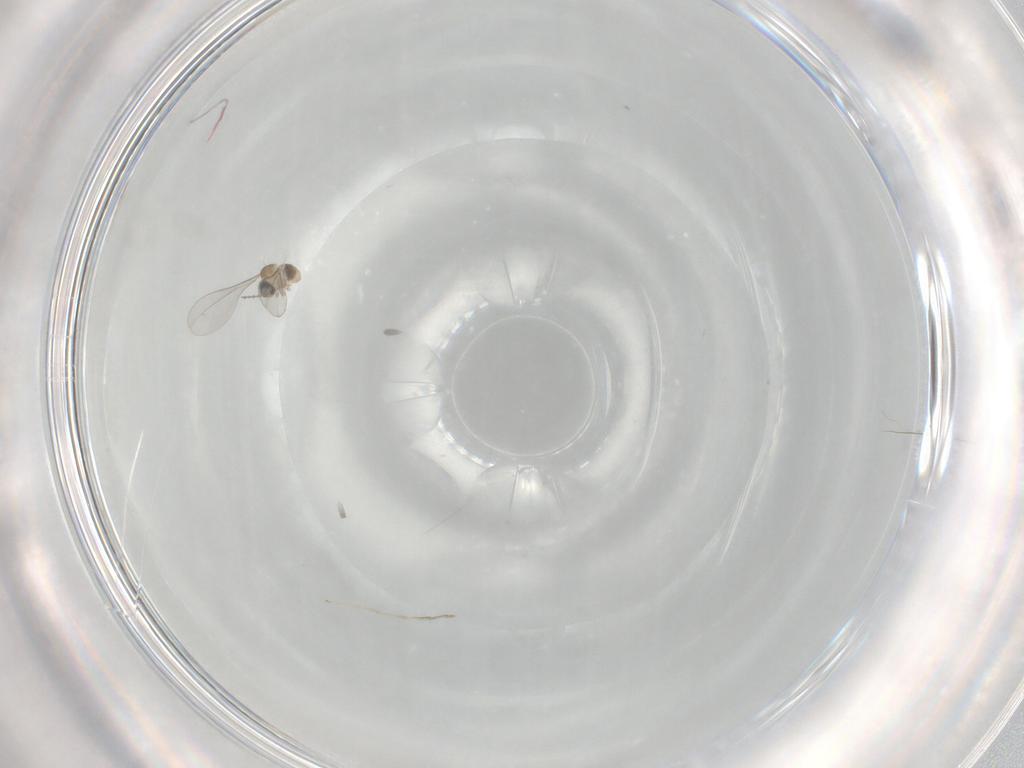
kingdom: Animalia
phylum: Arthropoda
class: Insecta
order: Diptera
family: Cecidomyiidae
